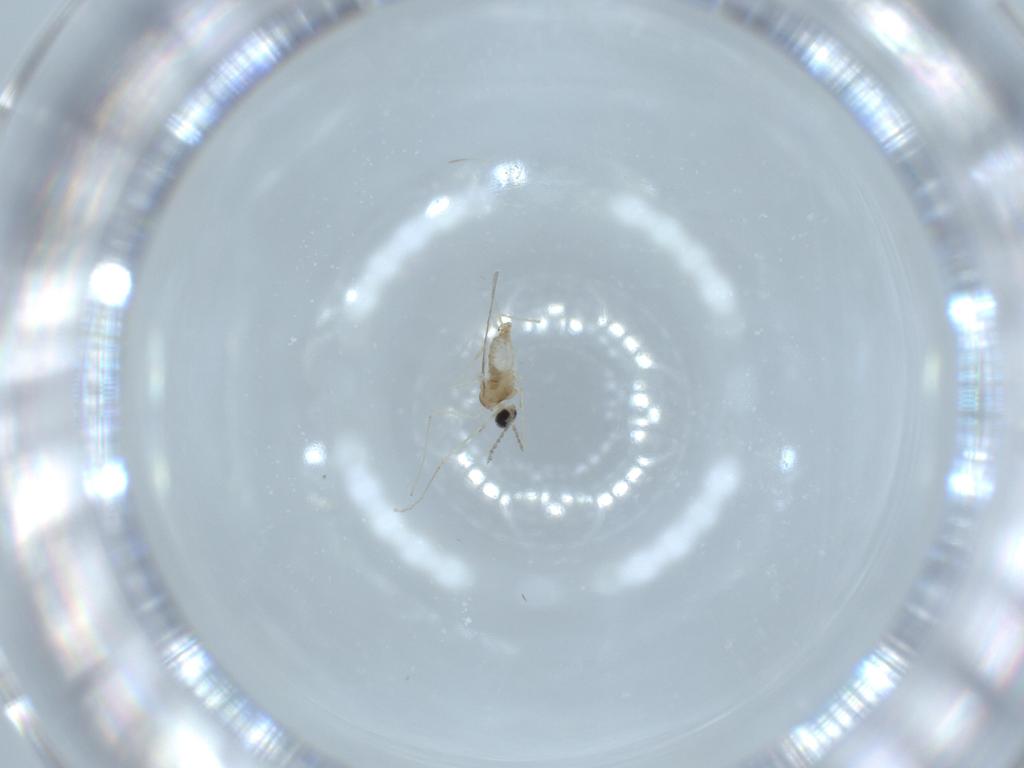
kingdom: Animalia
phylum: Arthropoda
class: Insecta
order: Diptera
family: Cecidomyiidae
